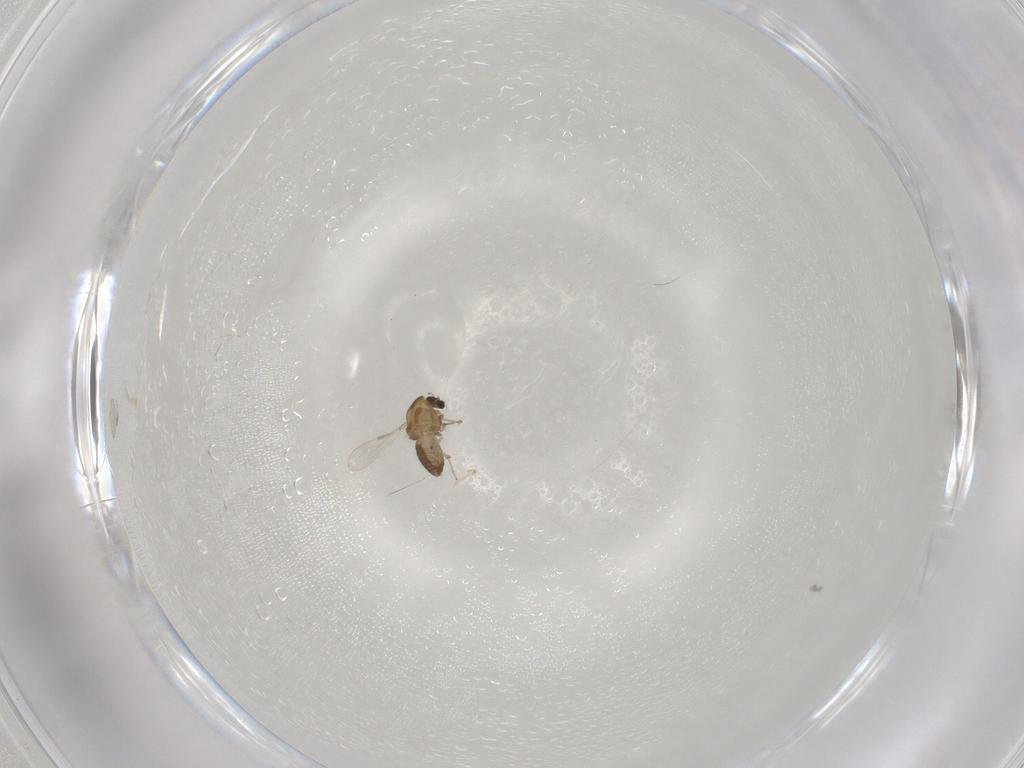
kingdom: Animalia
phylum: Arthropoda
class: Insecta
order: Diptera
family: Chironomidae
